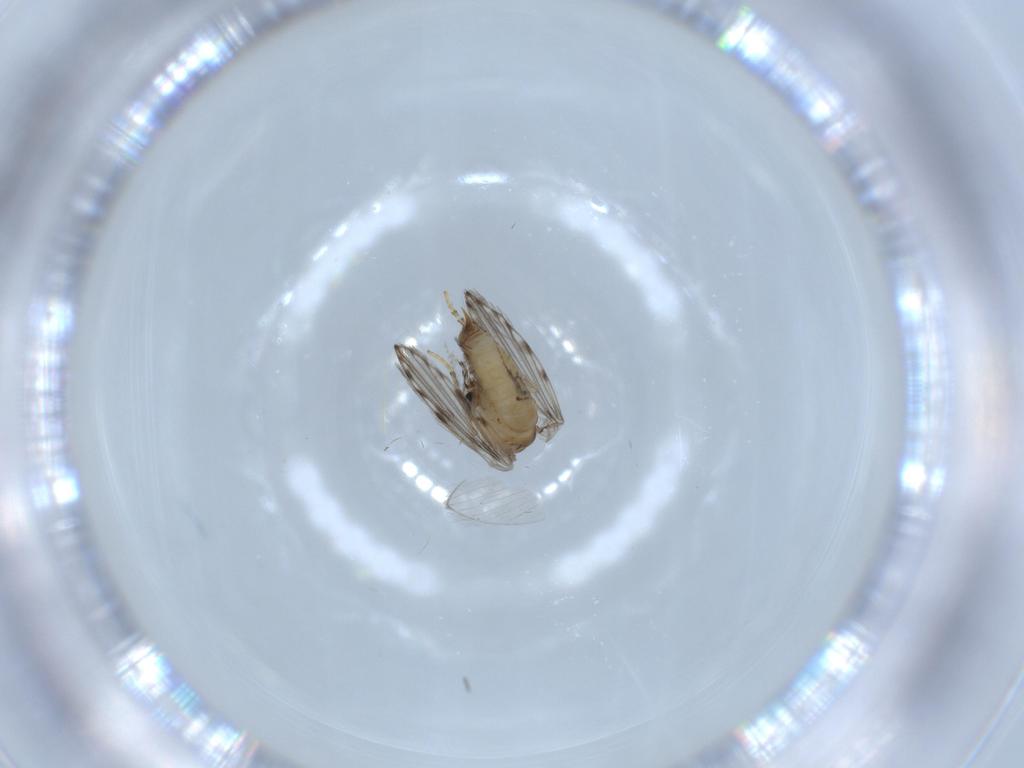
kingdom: Animalia
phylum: Arthropoda
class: Insecta
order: Diptera
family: Psychodidae
